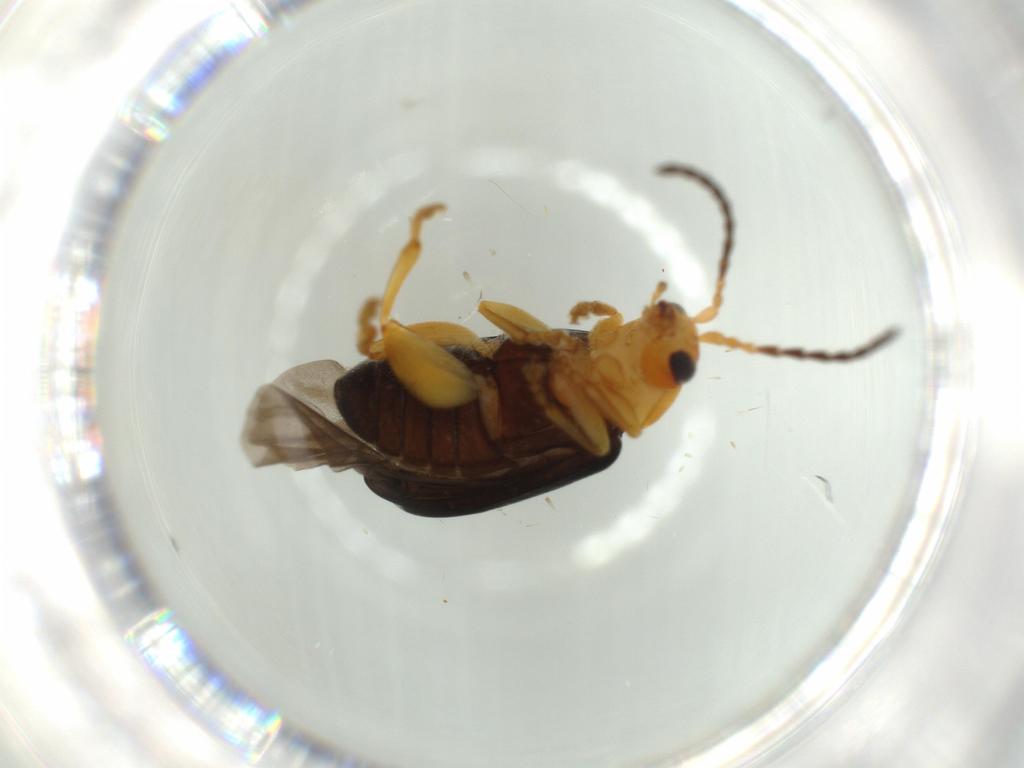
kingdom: Animalia
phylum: Arthropoda
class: Insecta
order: Coleoptera
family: Chrysomelidae
